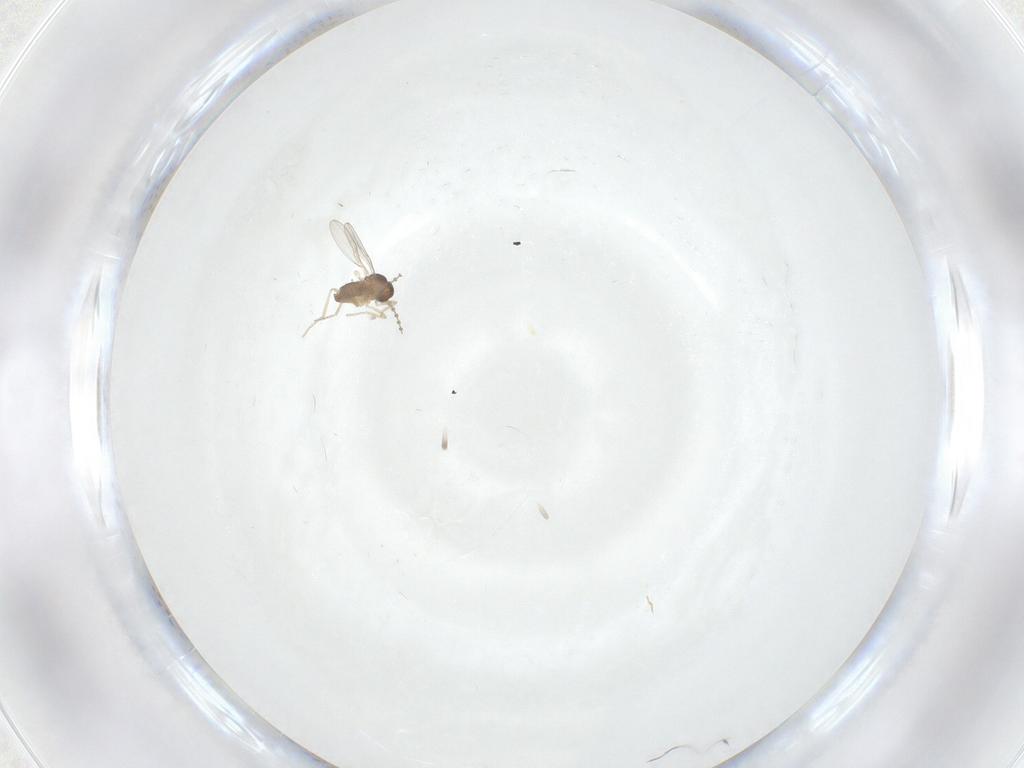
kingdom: Animalia
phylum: Arthropoda
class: Insecta
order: Diptera
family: Cecidomyiidae
